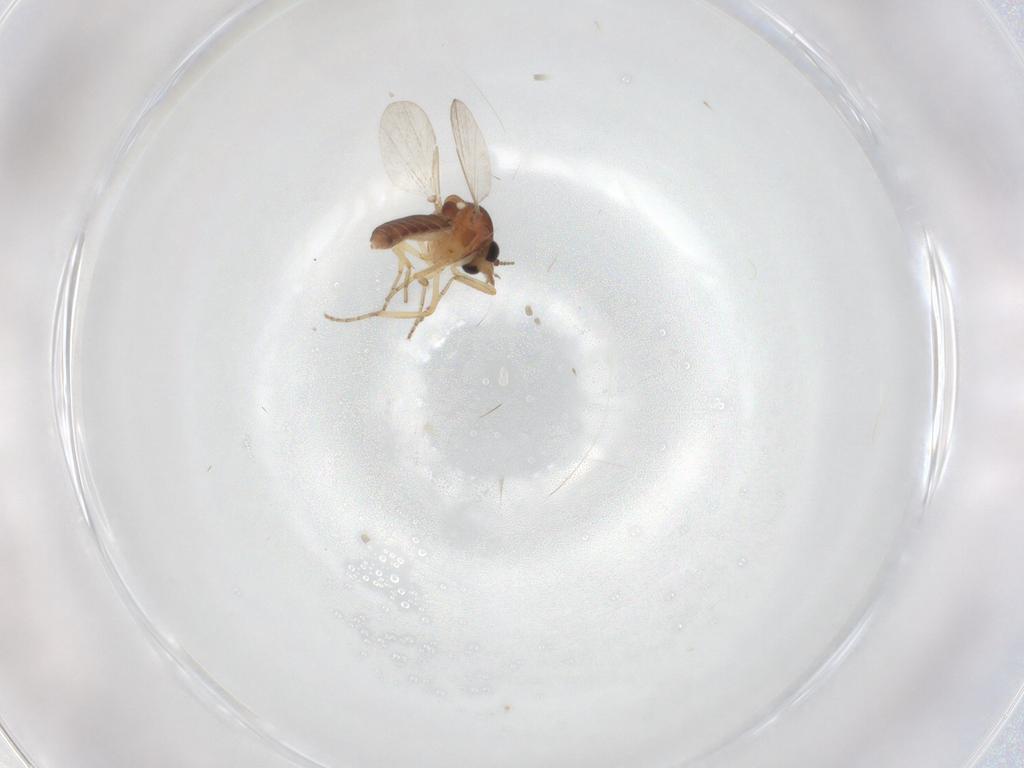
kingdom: Animalia
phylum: Arthropoda
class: Insecta
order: Diptera
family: Ceratopogonidae
